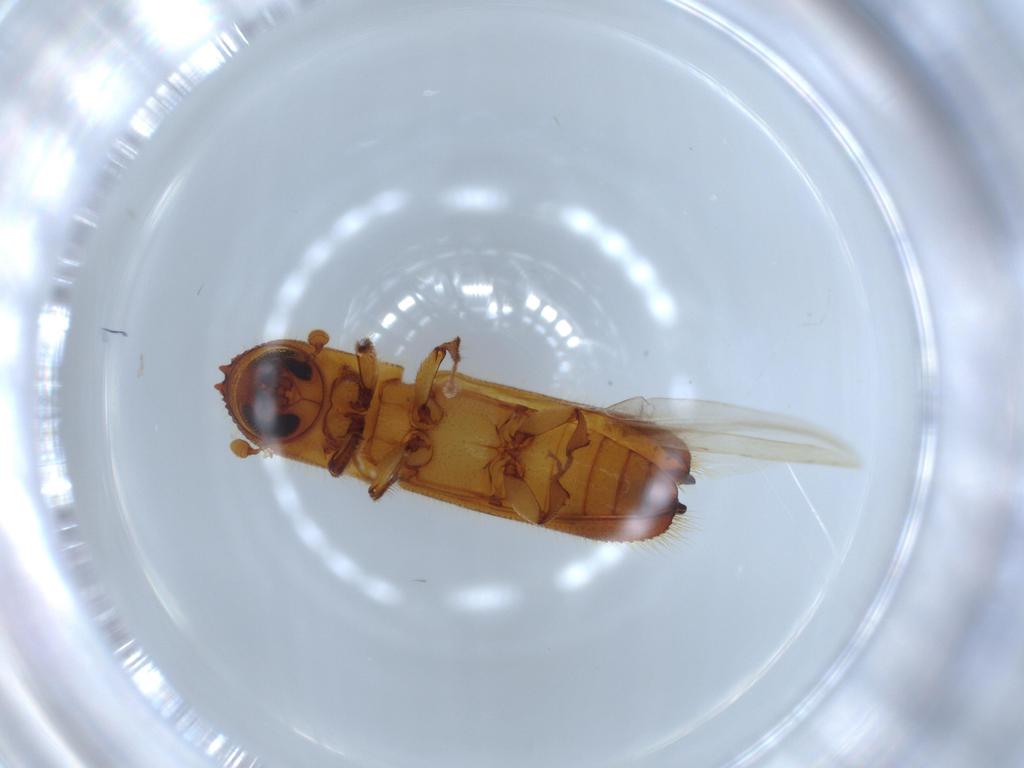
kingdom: Animalia
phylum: Arthropoda
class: Insecta
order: Coleoptera
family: Curculionidae
